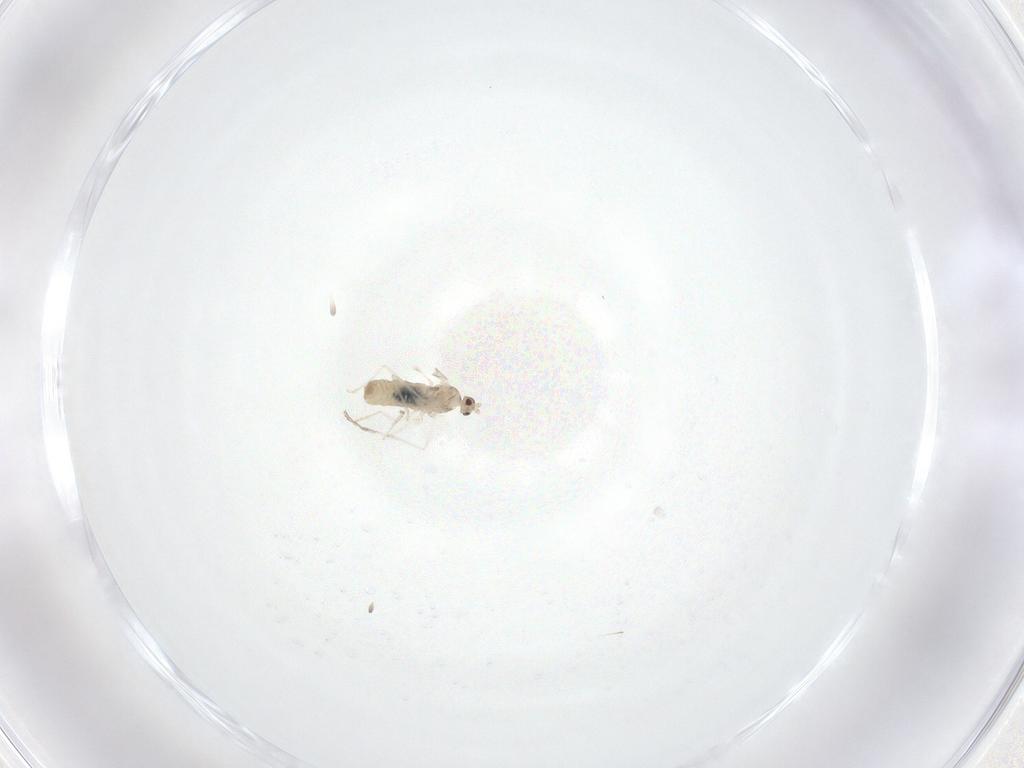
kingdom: Animalia
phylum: Arthropoda
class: Insecta
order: Diptera
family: Cecidomyiidae
